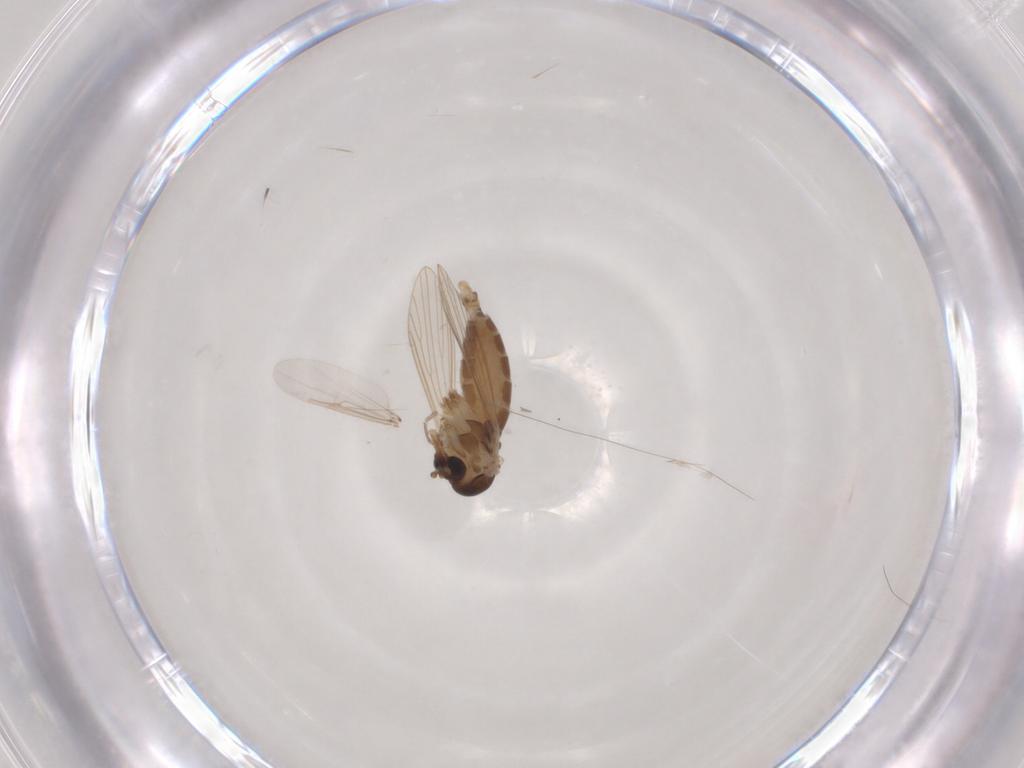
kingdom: Animalia
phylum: Arthropoda
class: Insecta
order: Diptera
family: Psychodidae
